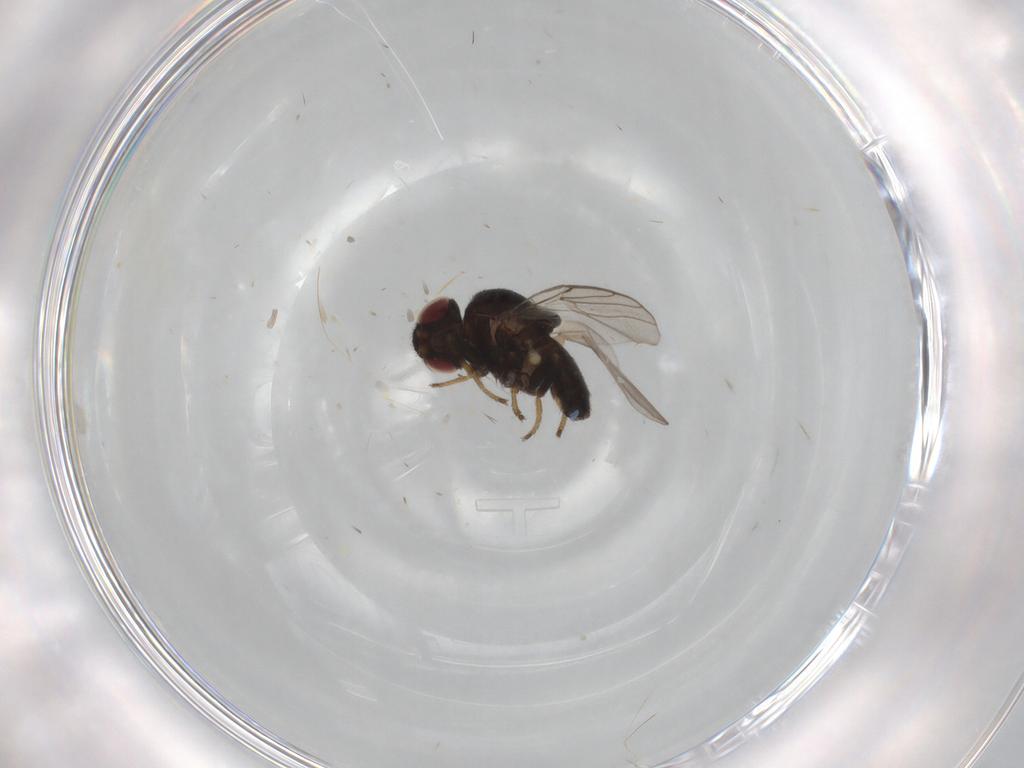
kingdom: Animalia
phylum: Arthropoda
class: Insecta
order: Diptera
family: Chloropidae
